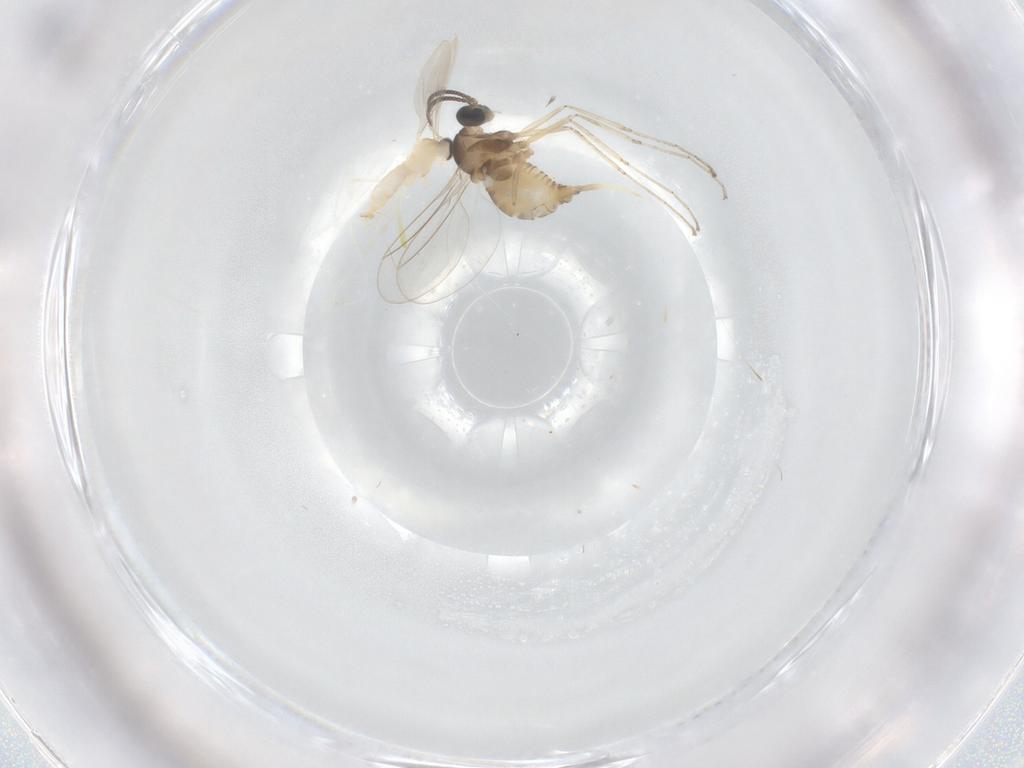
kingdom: Animalia
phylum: Arthropoda
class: Insecta
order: Diptera
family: Cecidomyiidae
